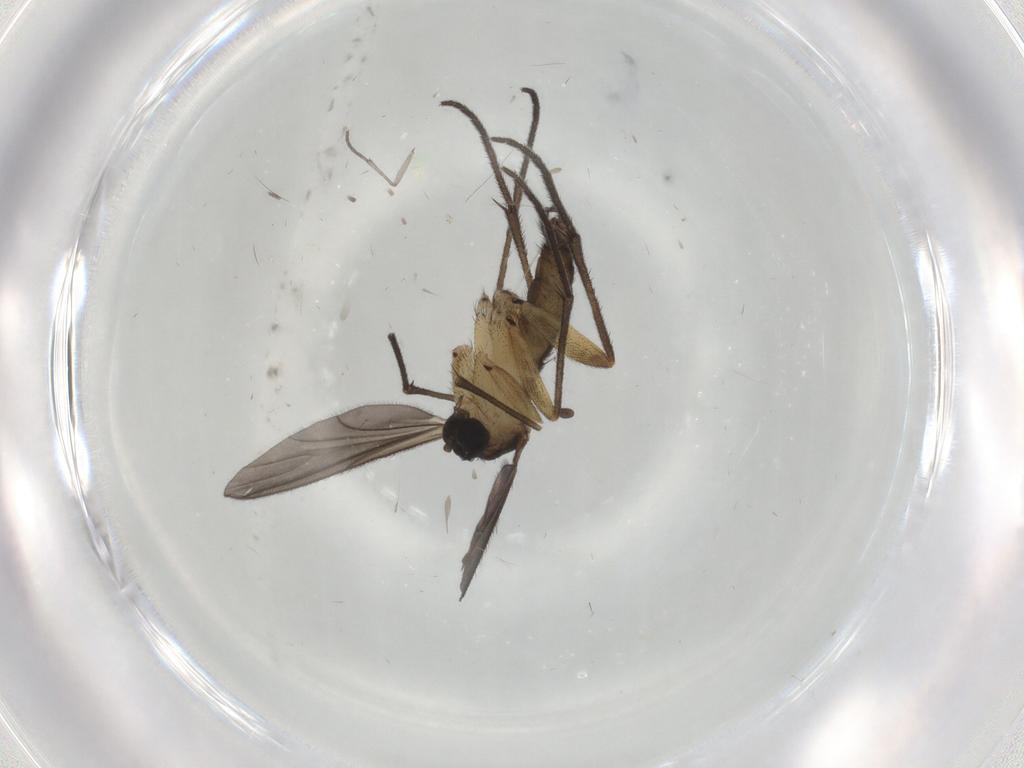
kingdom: Animalia
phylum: Arthropoda
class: Insecta
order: Diptera
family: Sciaridae
